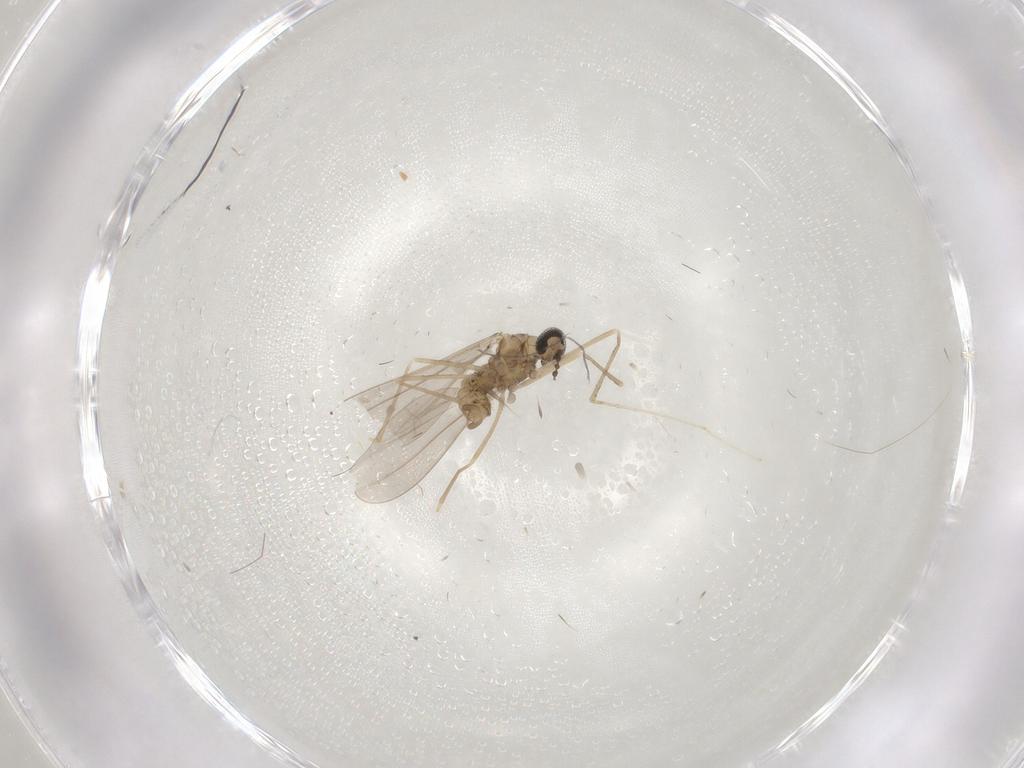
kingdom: Animalia
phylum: Arthropoda
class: Insecta
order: Diptera
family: Cecidomyiidae
